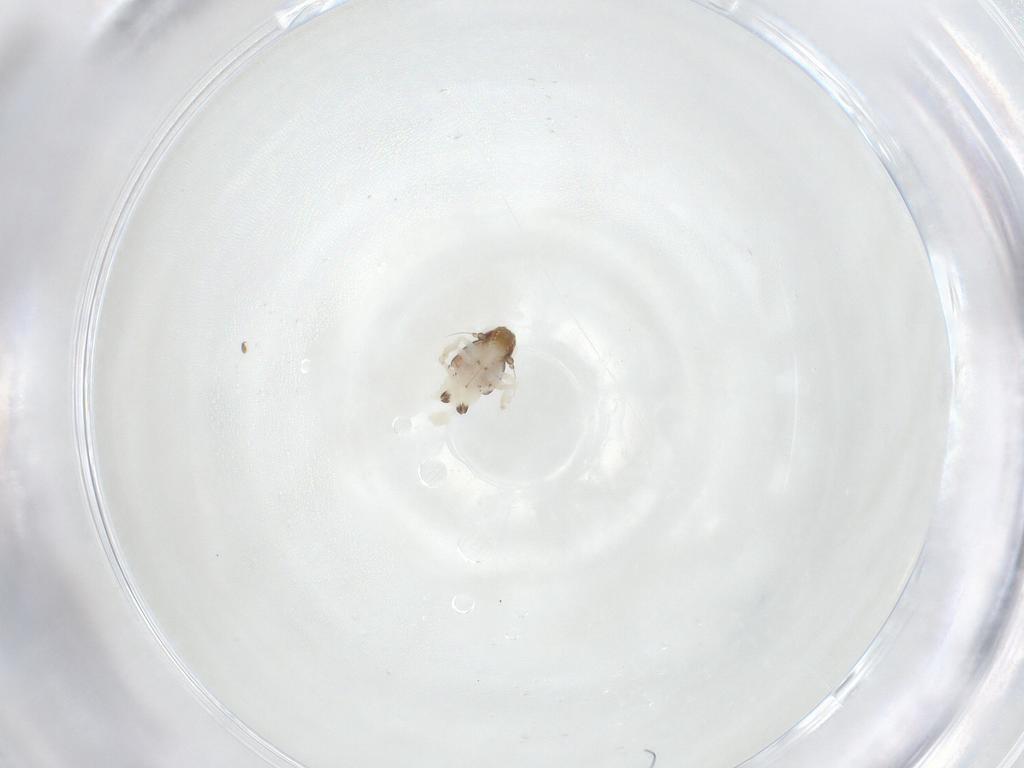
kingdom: Animalia
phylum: Arthropoda
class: Insecta
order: Hemiptera
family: Nogodinidae
